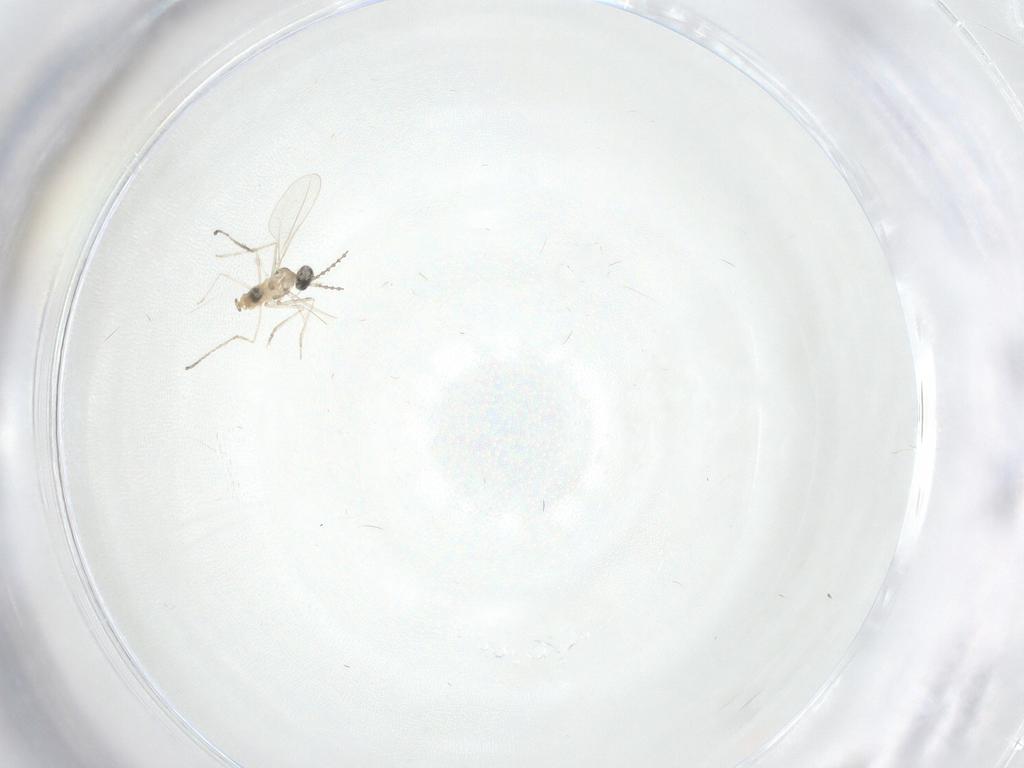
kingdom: Animalia
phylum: Arthropoda
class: Insecta
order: Diptera
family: Cecidomyiidae
